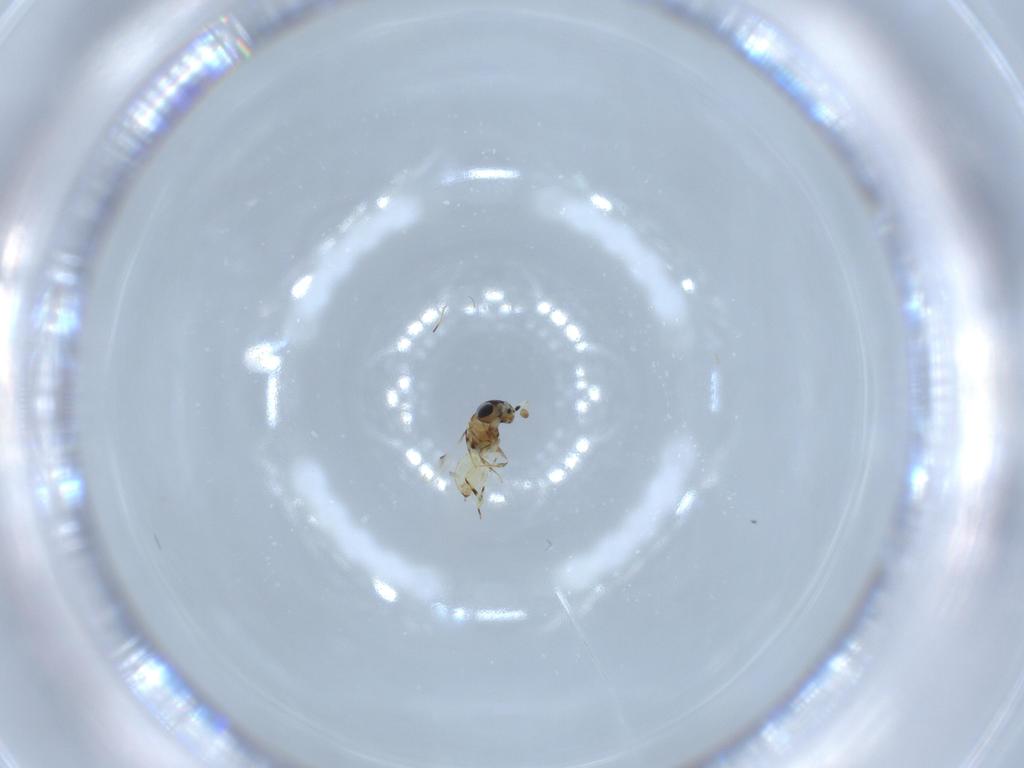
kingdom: Animalia
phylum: Arthropoda
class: Insecta
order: Hymenoptera
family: Scelionidae
